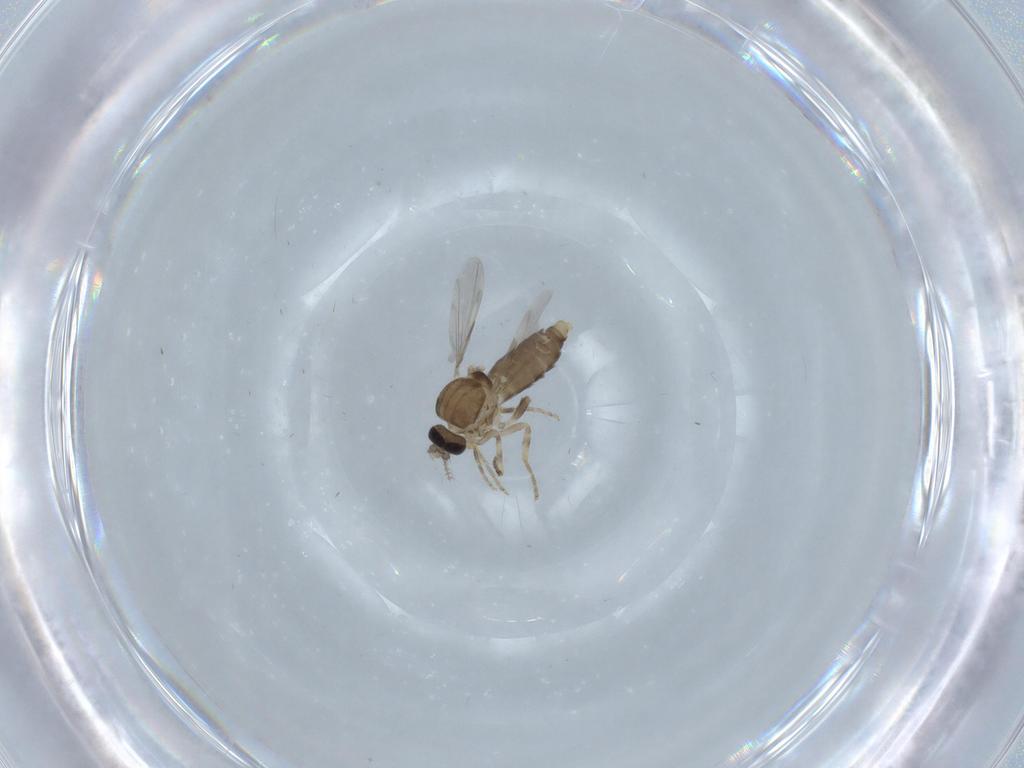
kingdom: Animalia
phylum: Arthropoda
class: Insecta
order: Diptera
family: Ceratopogonidae
